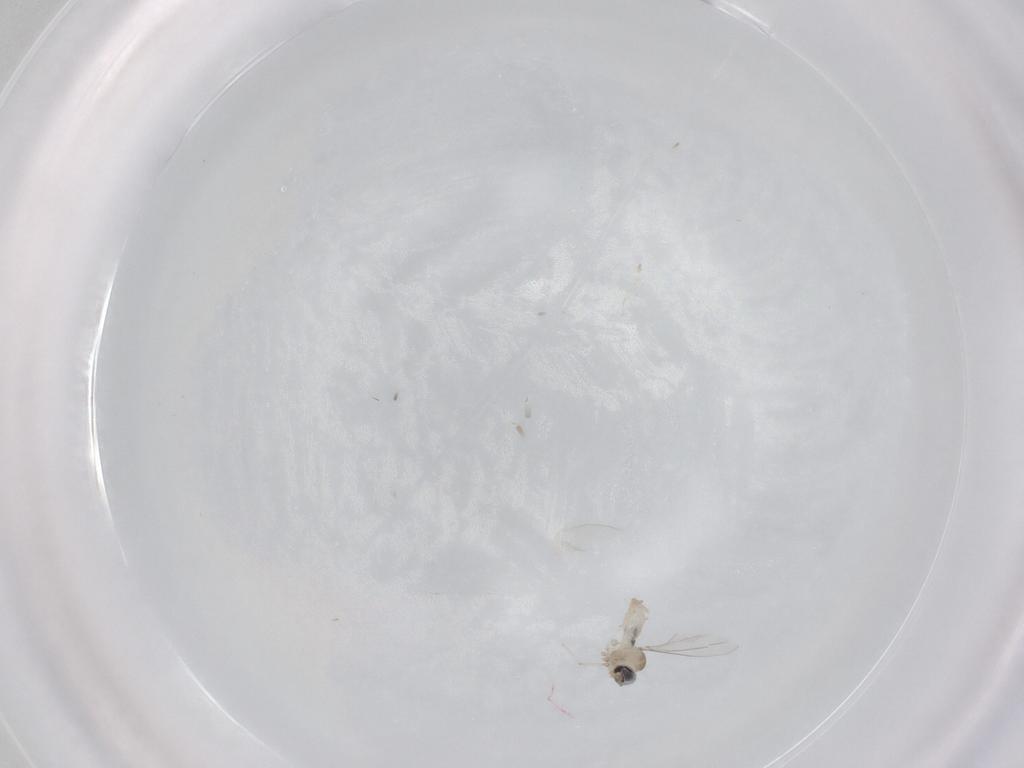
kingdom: Animalia
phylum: Arthropoda
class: Insecta
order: Diptera
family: Cecidomyiidae
